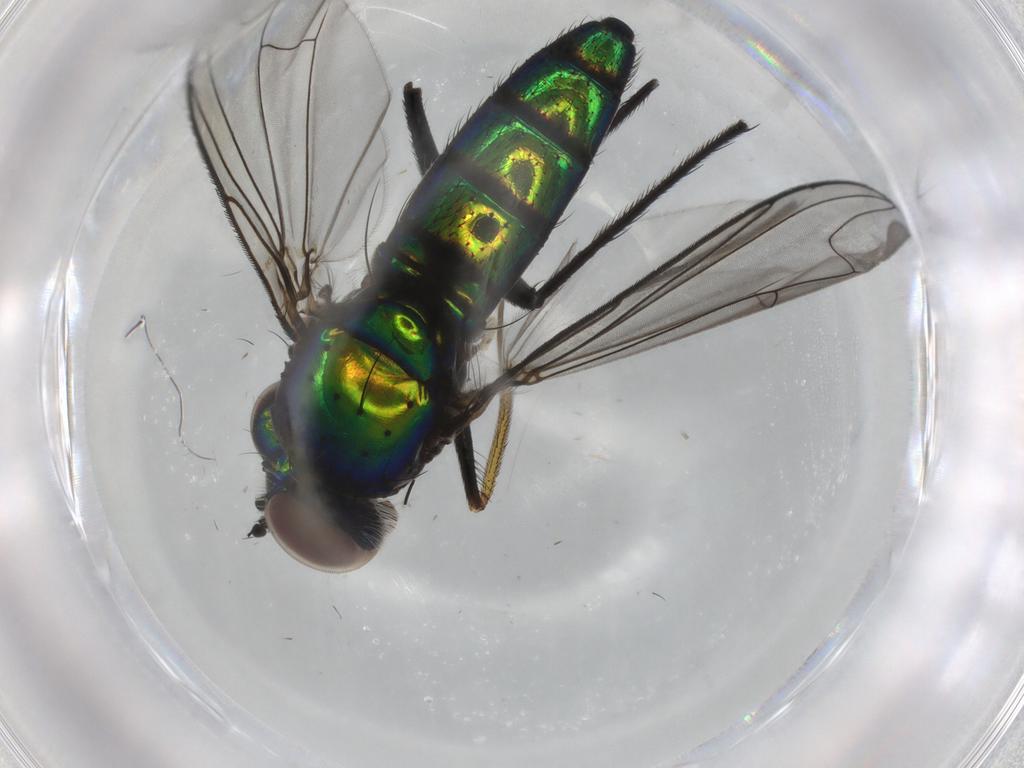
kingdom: Animalia
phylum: Arthropoda
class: Insecta
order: Diptera
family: Dolichopodidae
